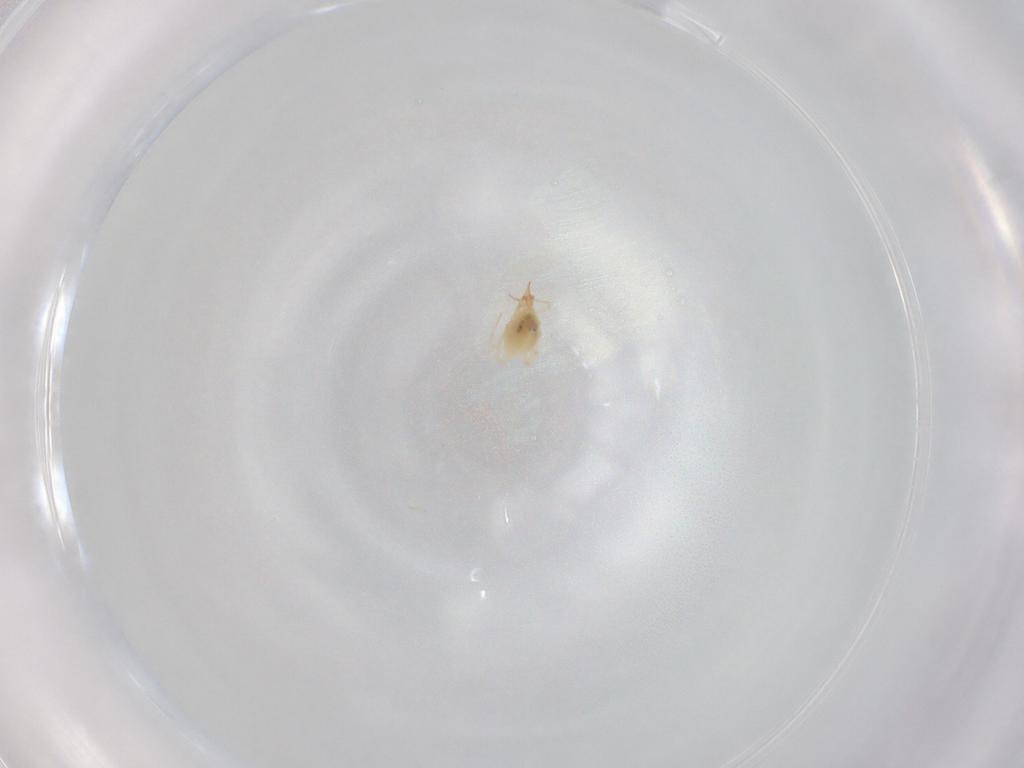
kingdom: Animalia
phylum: Arthropoda
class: Arachnida
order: Trombidiformes
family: Cunaxidae
